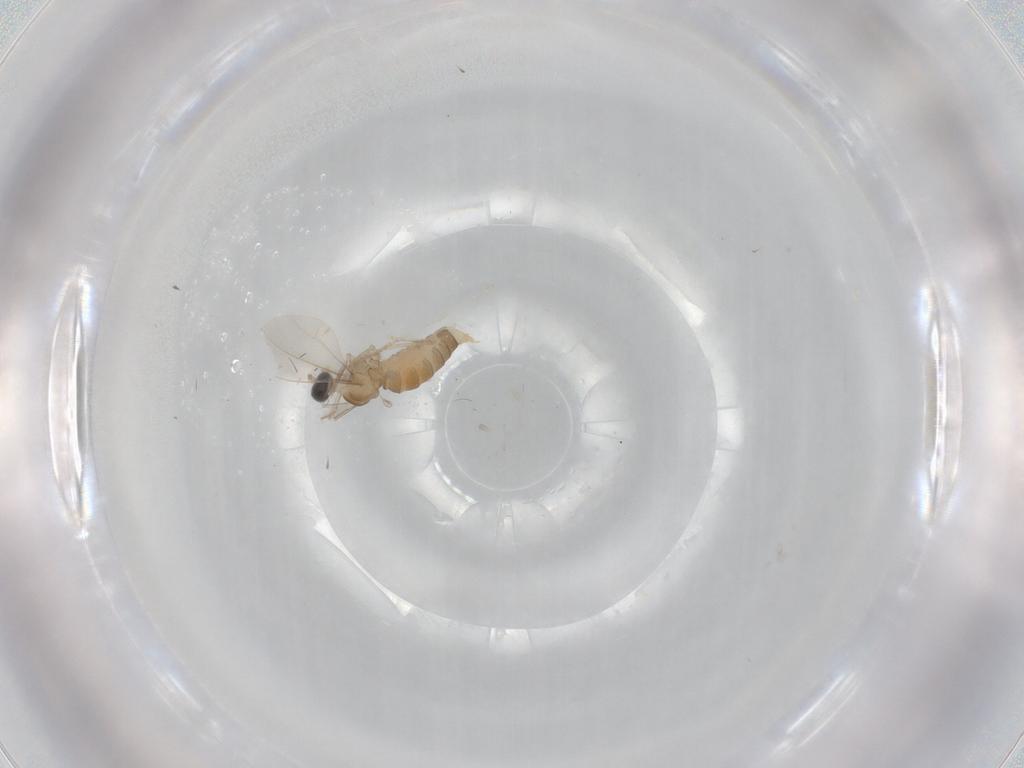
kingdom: Animalia
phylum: Arthropoda
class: Insecta
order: Diptera
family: Cecidomyiidae
